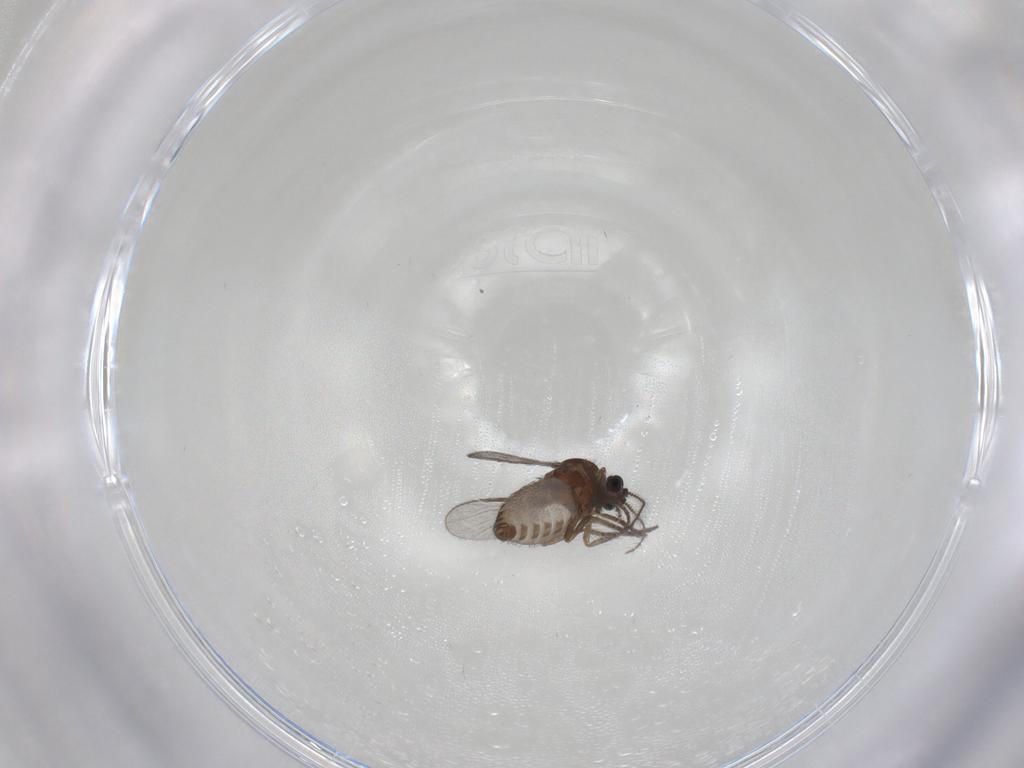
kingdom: Animalia
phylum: Arthropoda
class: Insecta
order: Diptera
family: Ceratopogonidae
